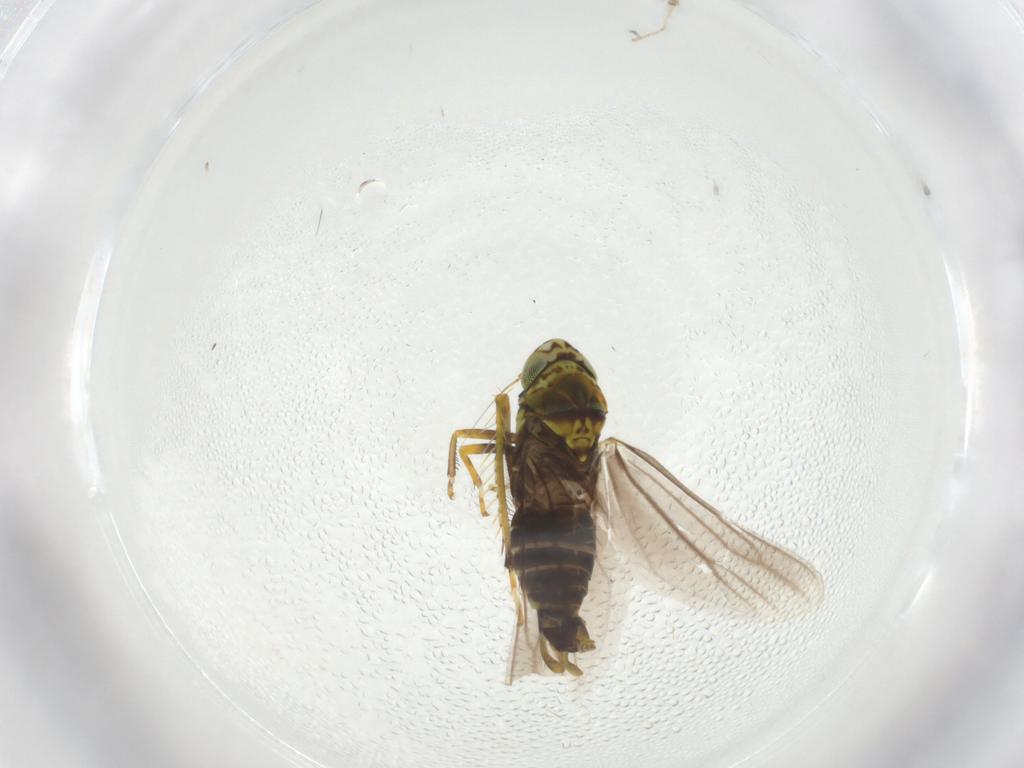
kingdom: Animalia
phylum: Arthropoda
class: Insecta
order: Hemiptera
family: Cicadellidae
